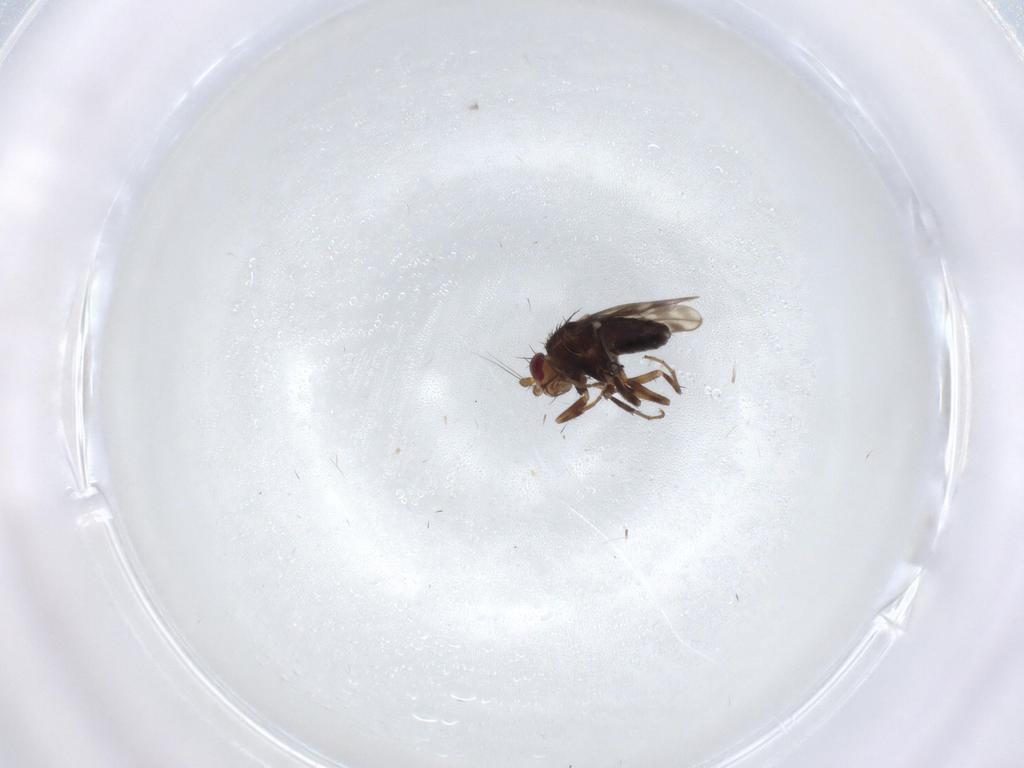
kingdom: Animalia
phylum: Arthropoda
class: Insecta
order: Diptera
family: Sphaeroceridae
